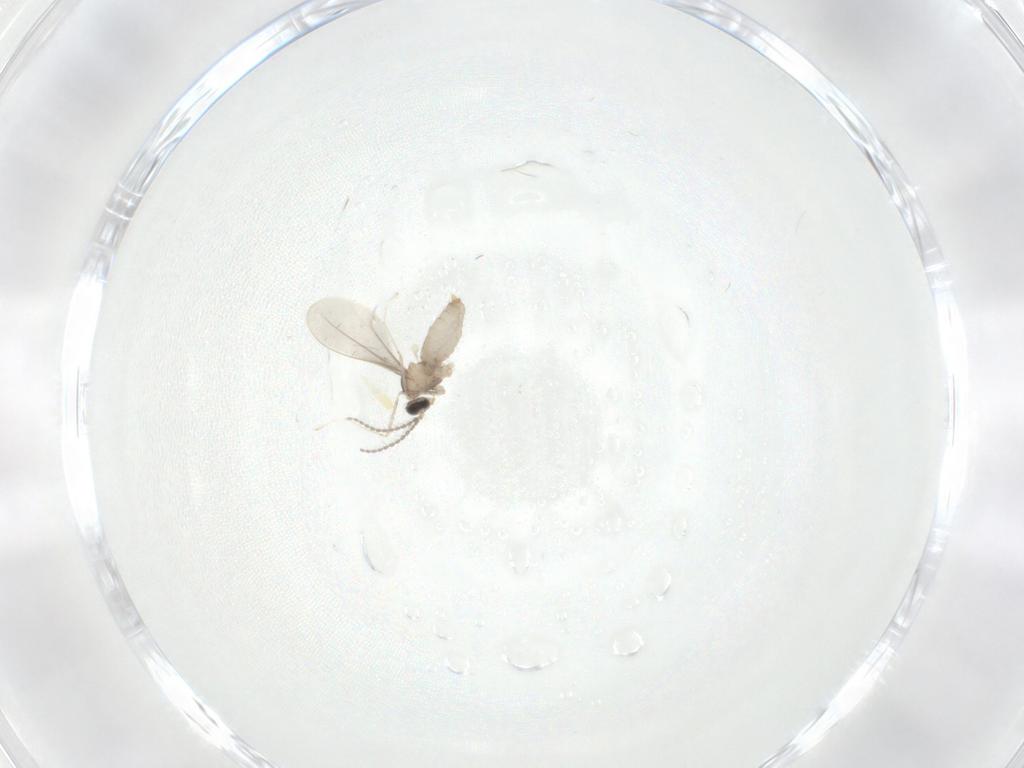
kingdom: Animalia
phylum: Arthropoda
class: Insecta
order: Diptera
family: Cecidomyiidae
